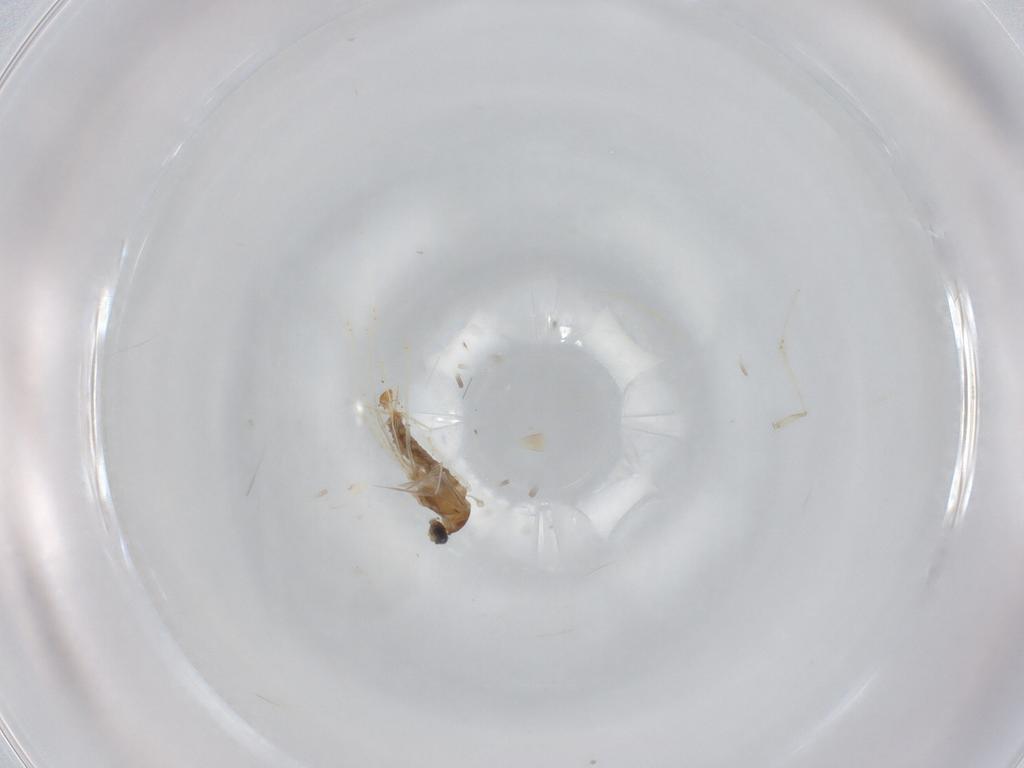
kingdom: Animalia
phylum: Arthropoda
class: Insecta
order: Diptera
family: Cecidomyiidae
